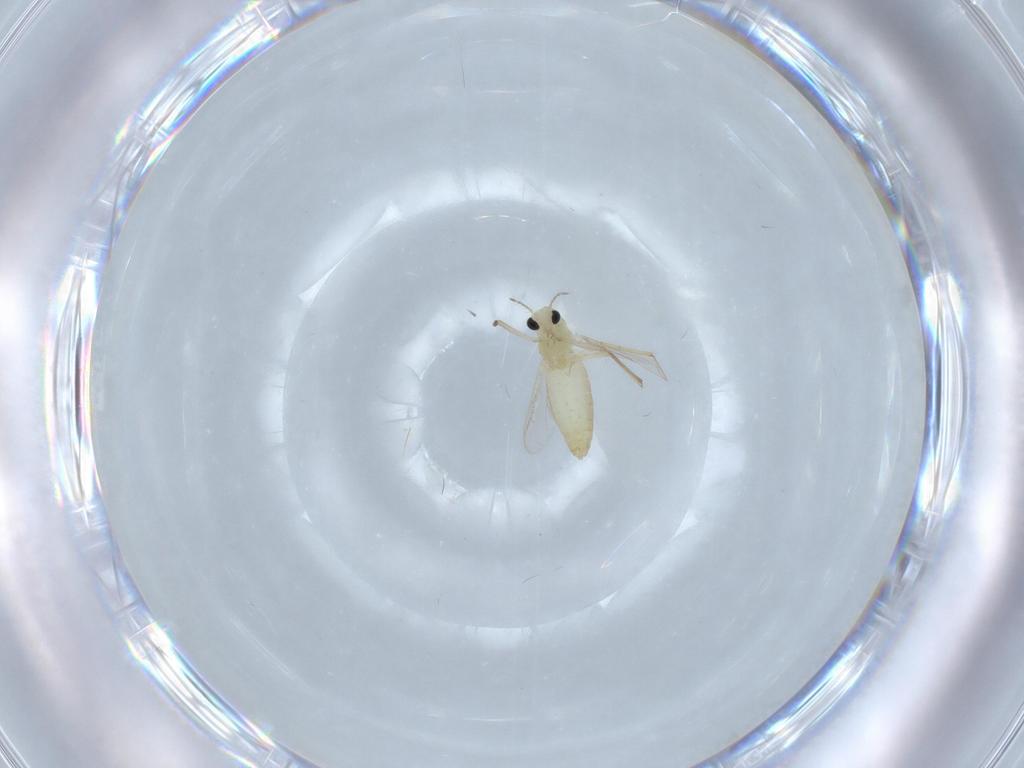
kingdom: Animalia
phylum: Arthropoda
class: Insecta
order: Diptera
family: Chironomidae
